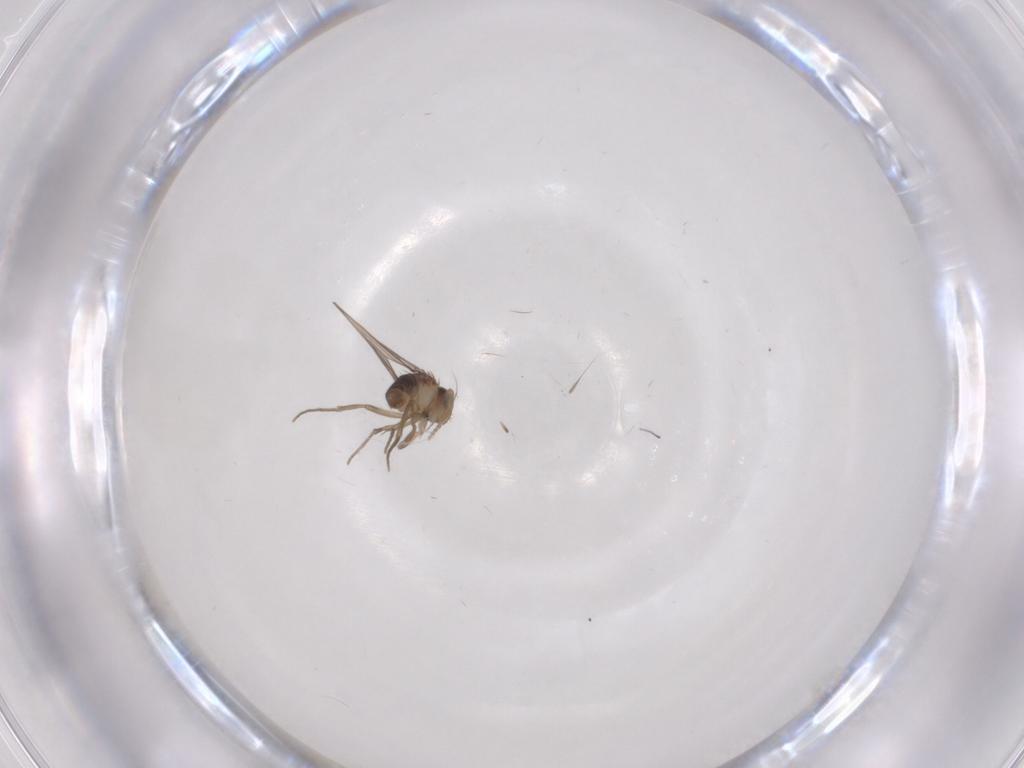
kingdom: Animalia
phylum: Arthropoda
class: Insecta
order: Diptera
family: Phoridae
